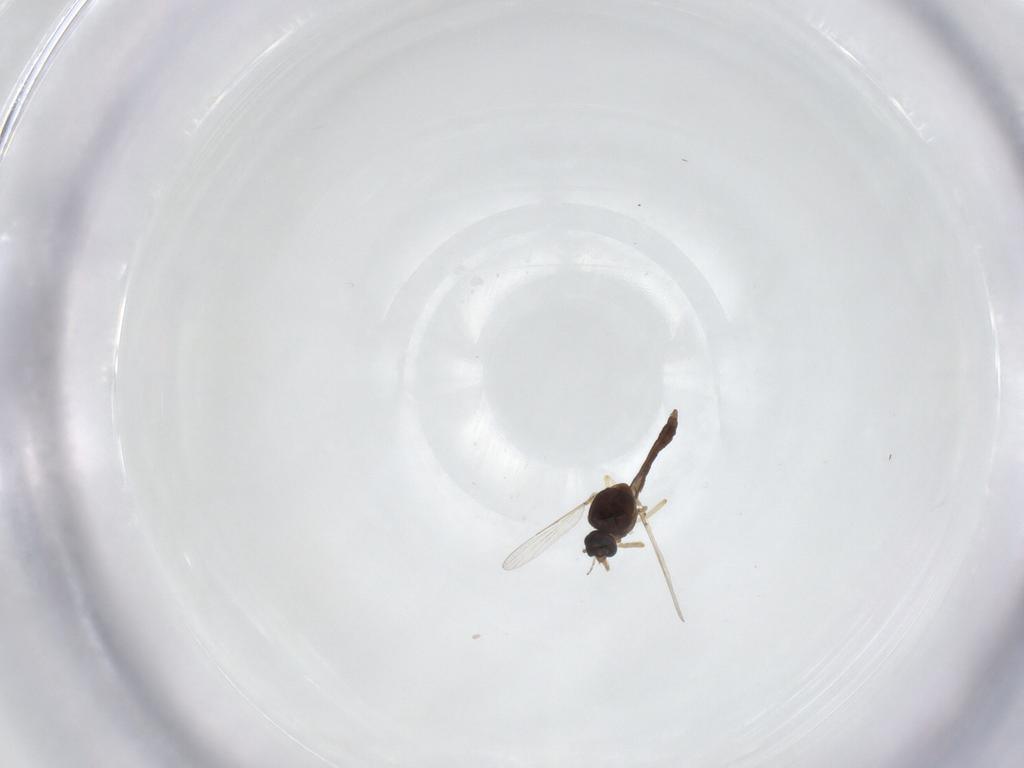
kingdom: Animalia
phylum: Arthropoda
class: Insecta
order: Diptera
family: Ceratopogonidae
